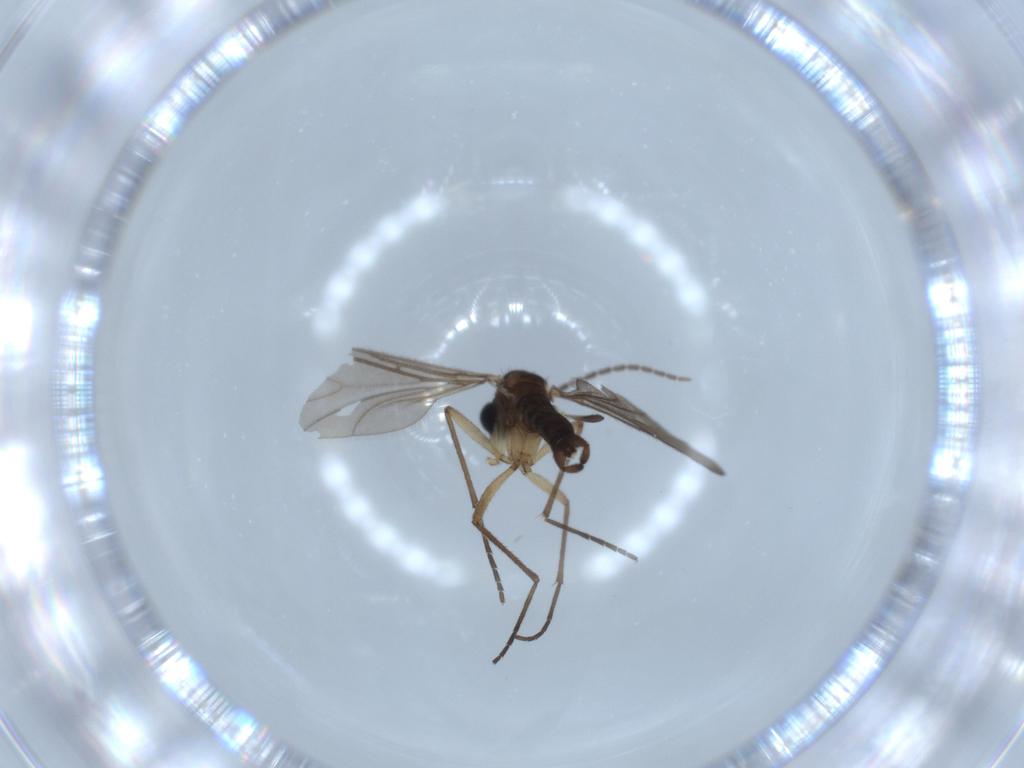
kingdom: Animalia
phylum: Arthropoda
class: Insecta
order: Diptera
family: Sciaridae
